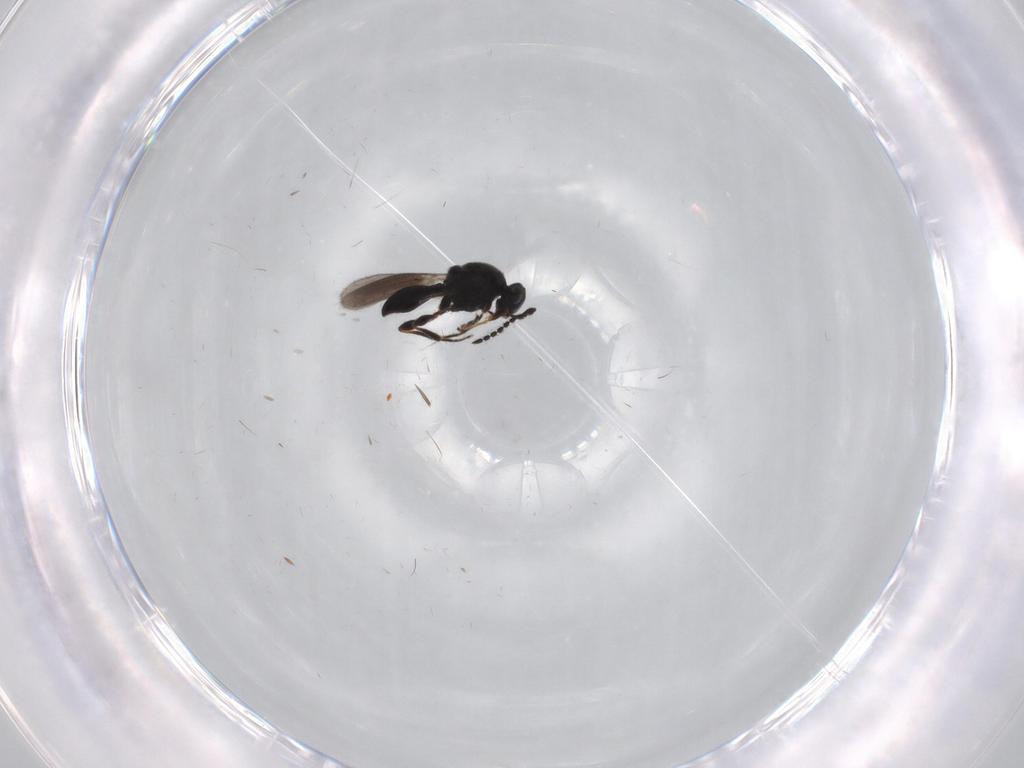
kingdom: Animalia
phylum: Arthropoda
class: Insecta
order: Hymenoptera
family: Platygastridae
